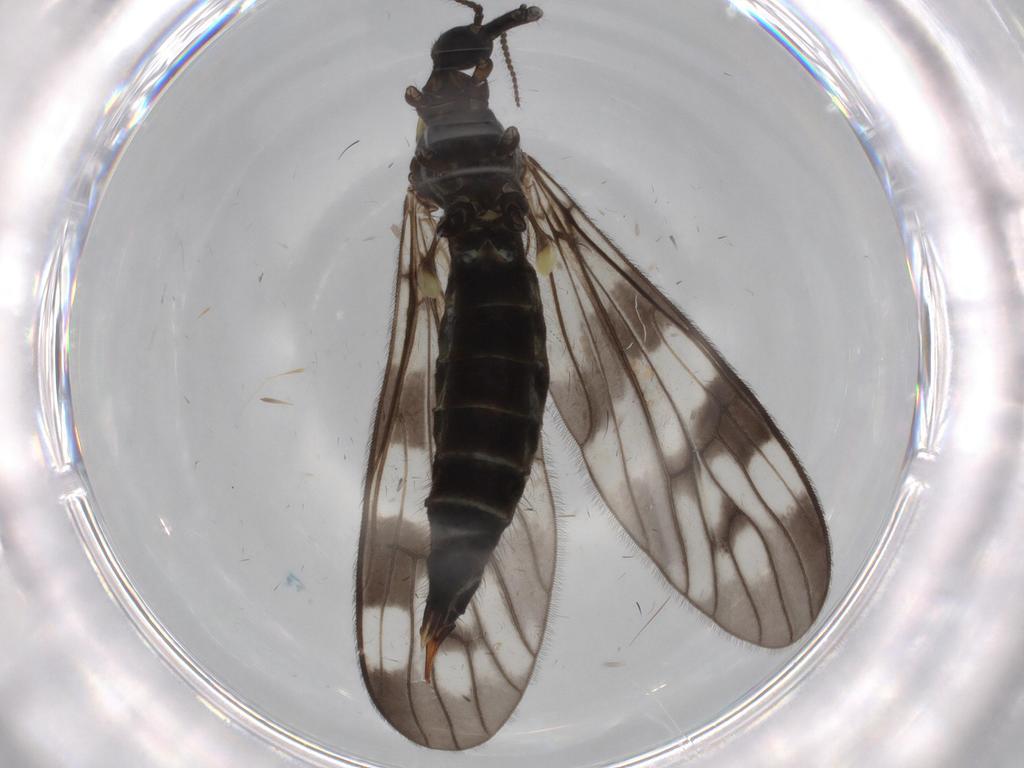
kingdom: Animalia
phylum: Arthropoda
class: Insecta
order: Diptera
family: Limoniidae
